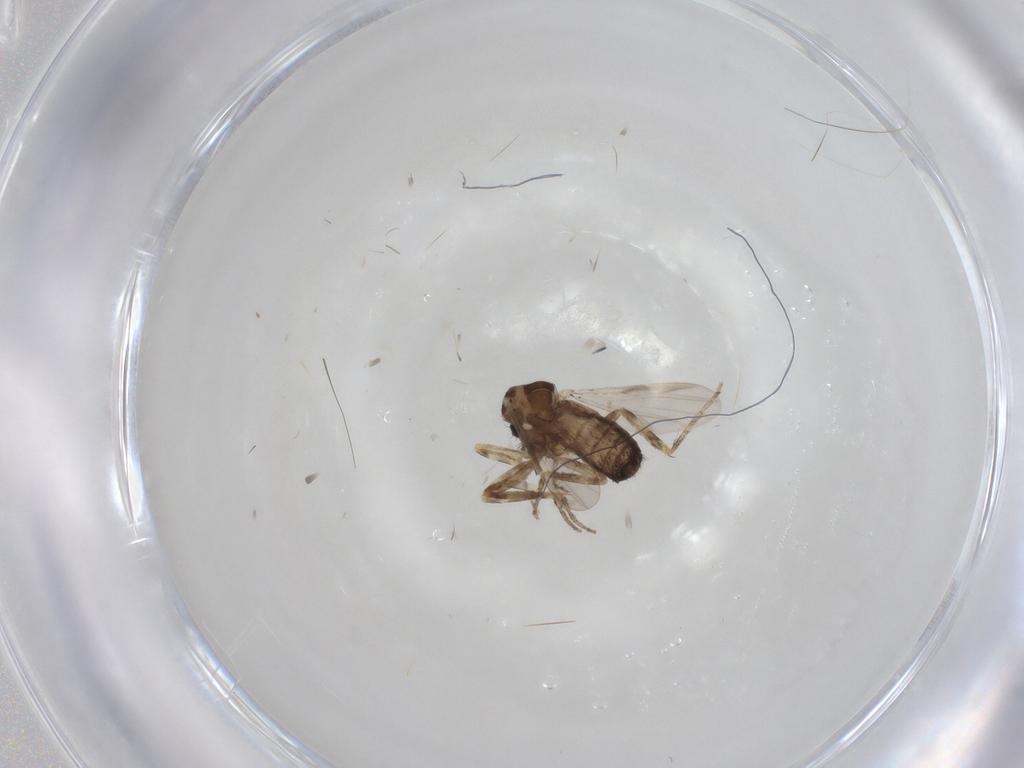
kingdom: Animalia
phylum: Arthropoda
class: Insecta
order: Diptera
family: Ceratopogonidae
